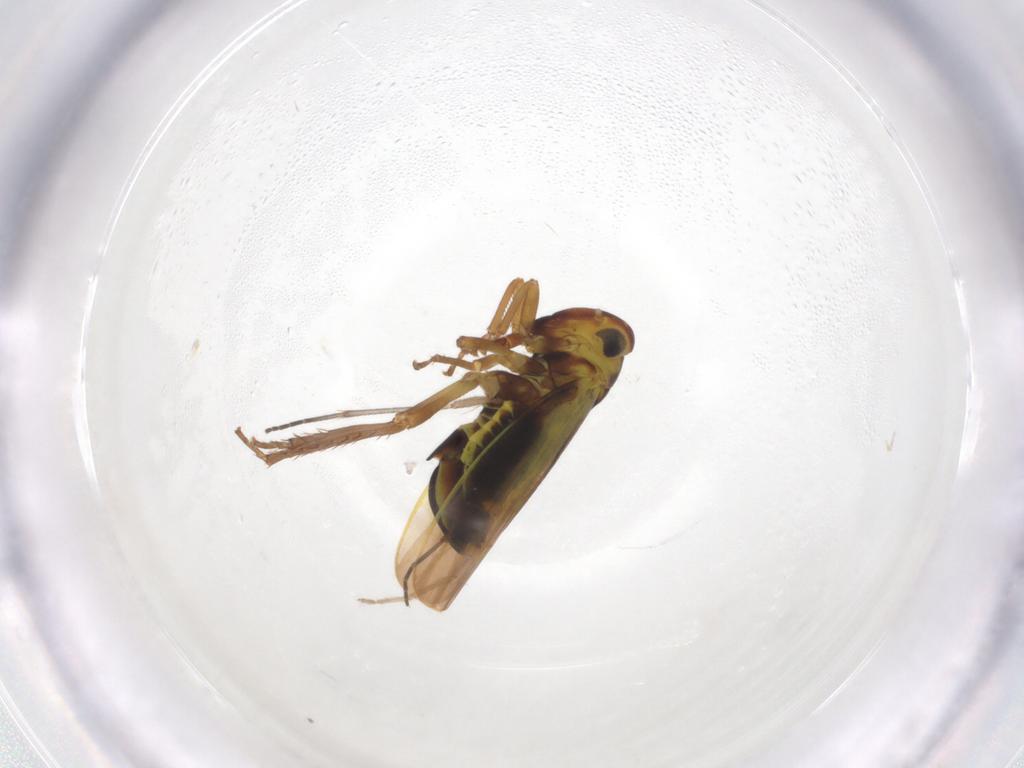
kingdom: Animalia
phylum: Arthropoda
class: Insecta
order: Hemiptera
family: Cicadellidae
